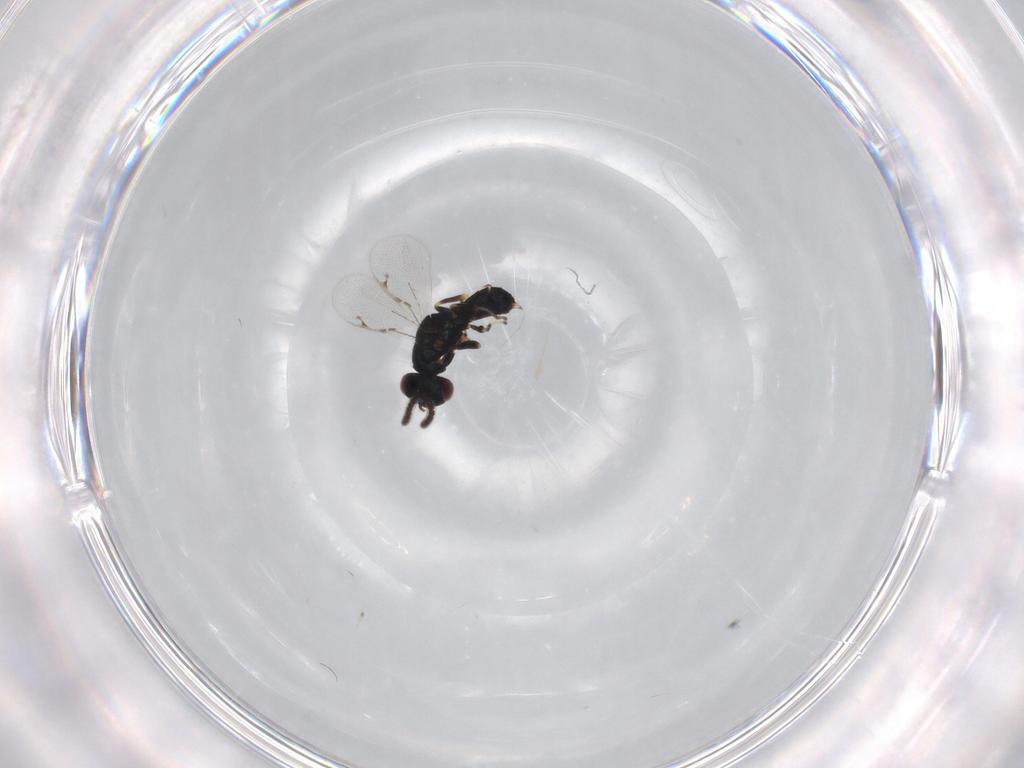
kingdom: Animalia
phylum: Arthropoda
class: Insecta
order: Hymenoptera
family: Pteromalidae
